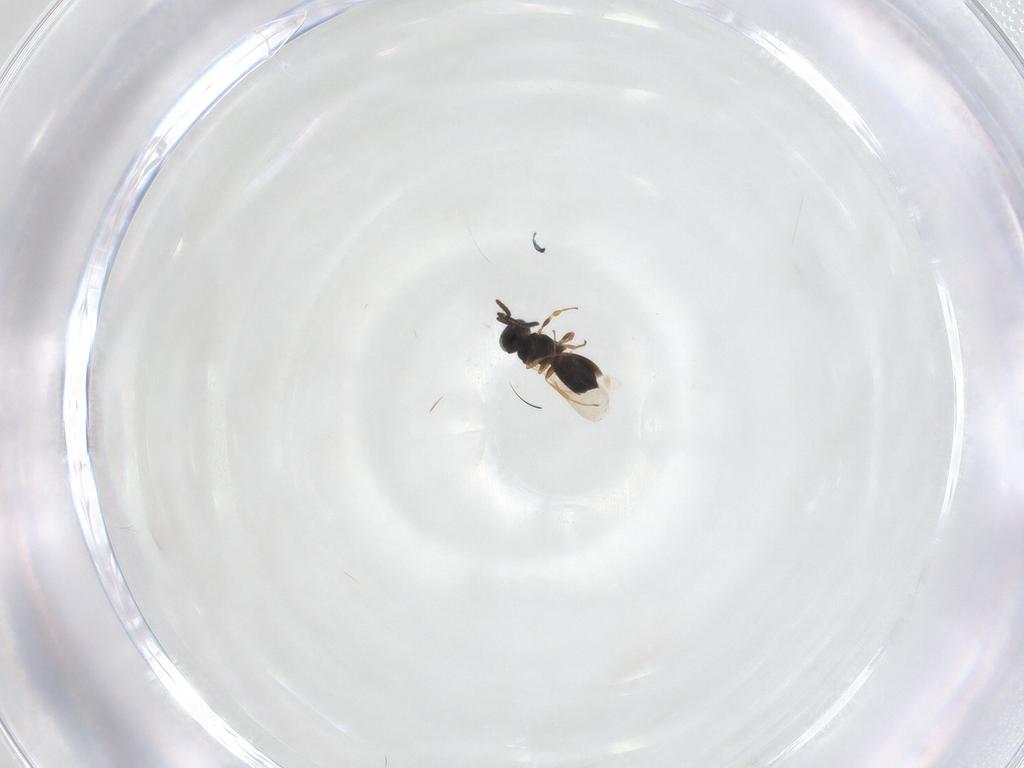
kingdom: Animalia
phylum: Arthropoda
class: Insecta
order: Hymenoptera
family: Scelionidae
